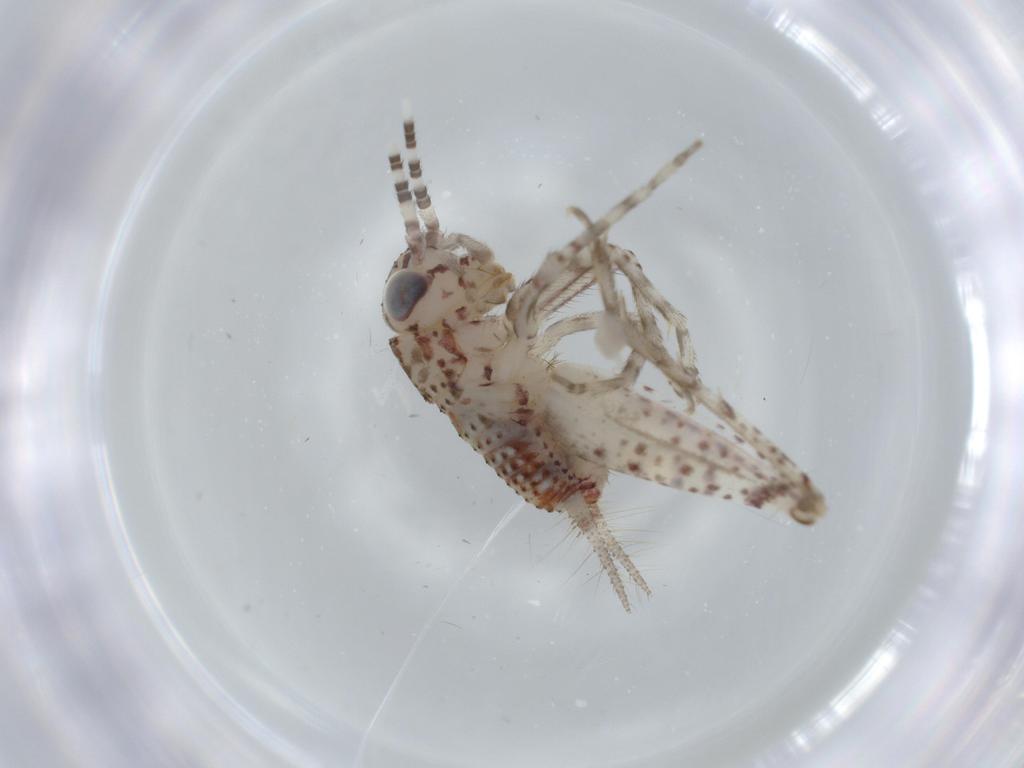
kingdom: Animalia
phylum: Arthropoda
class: Insecta
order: Orthoptera
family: Trigonidiidae
